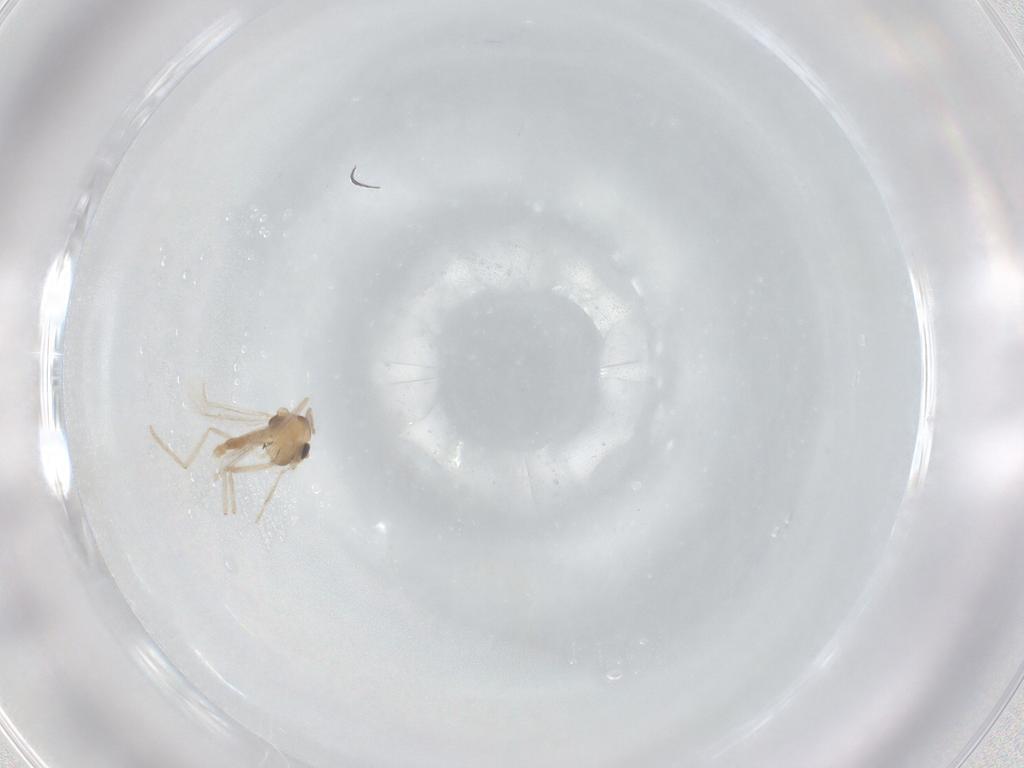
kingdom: Animalia
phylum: Arthropoda
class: Insecta
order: Diptera
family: Chironomidae
